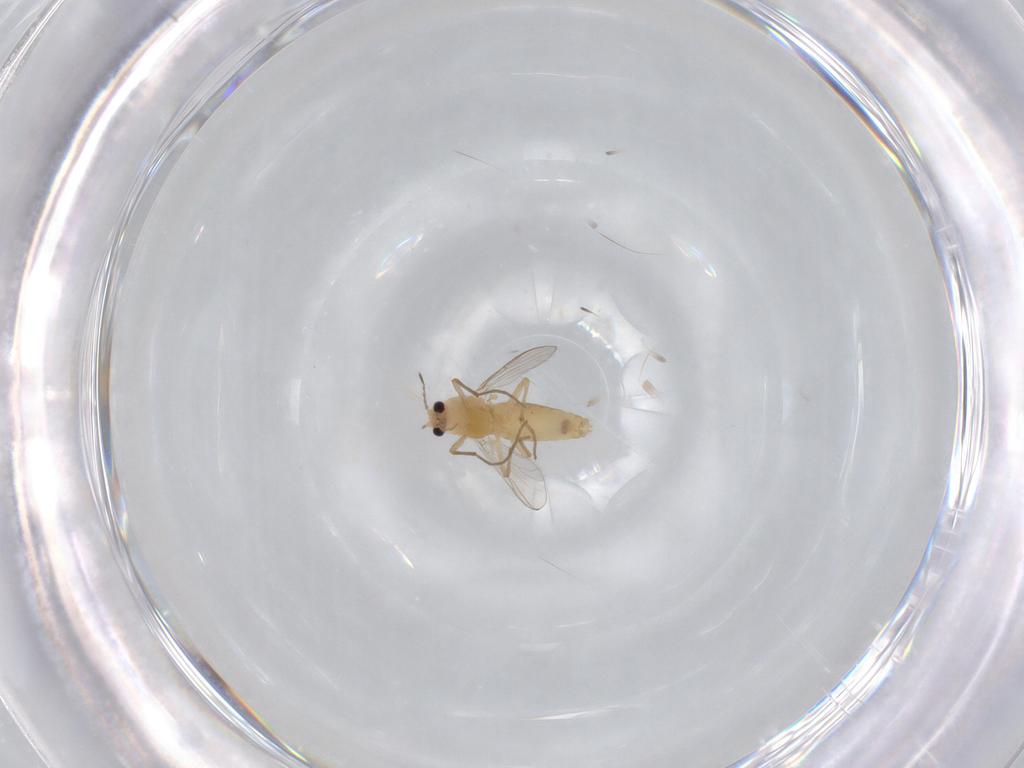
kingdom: Animalia
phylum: Arthropoda
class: Insecta
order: Diptera
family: Chironomidae
